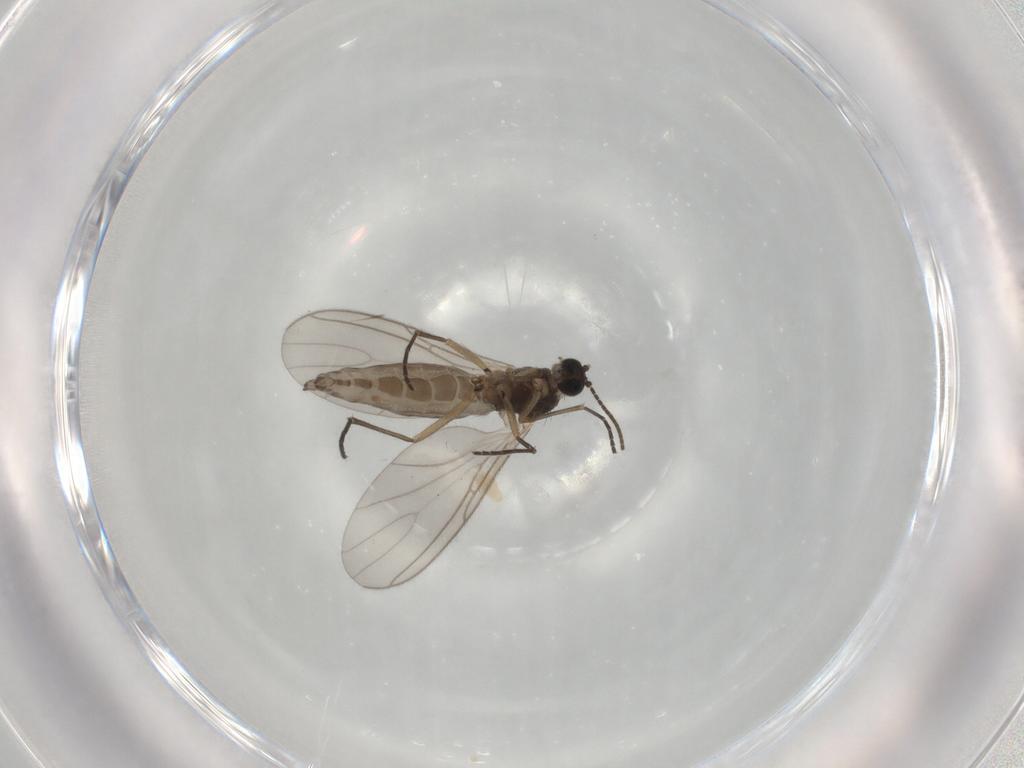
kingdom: Animalia
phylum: Arthropoda
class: Insecta
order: Diptera
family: Sciaridae
